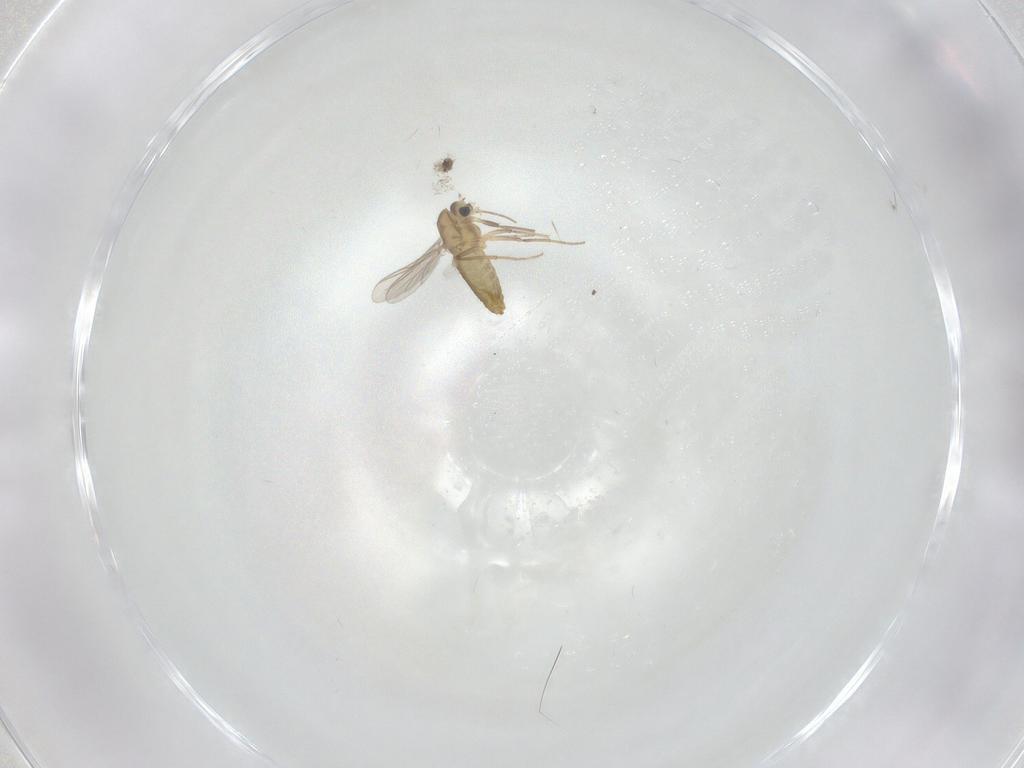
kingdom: Animalia
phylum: Arthropoda
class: Insecta
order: Diptera
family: Chironomidae
